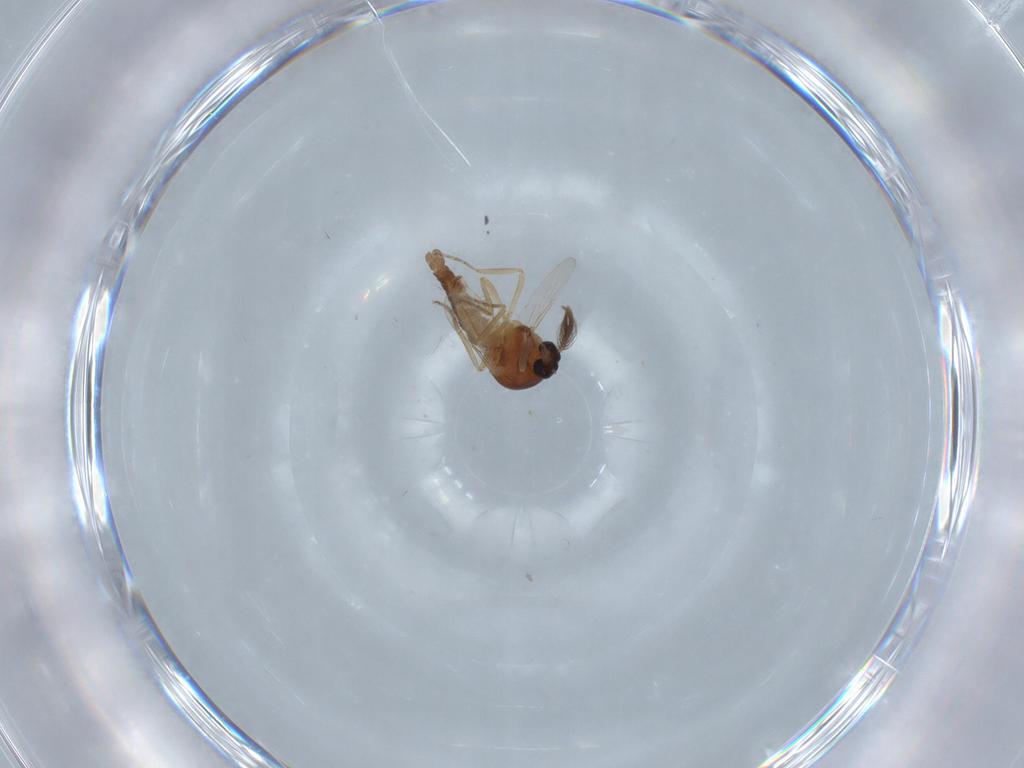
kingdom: Animalia
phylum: Arthropoda
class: Insecta
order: Diptera
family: Ceratopogonidae
